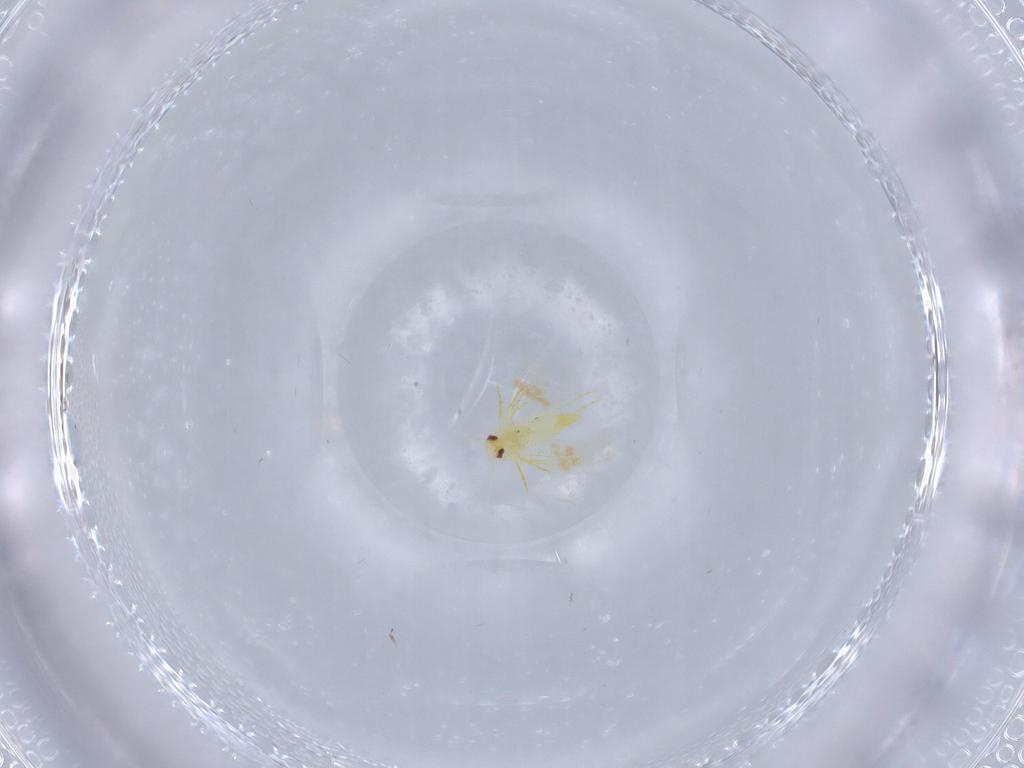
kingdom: Animalia
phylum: Arthropoda
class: Insecta
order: Hemiptera
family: Aleyrodidae
